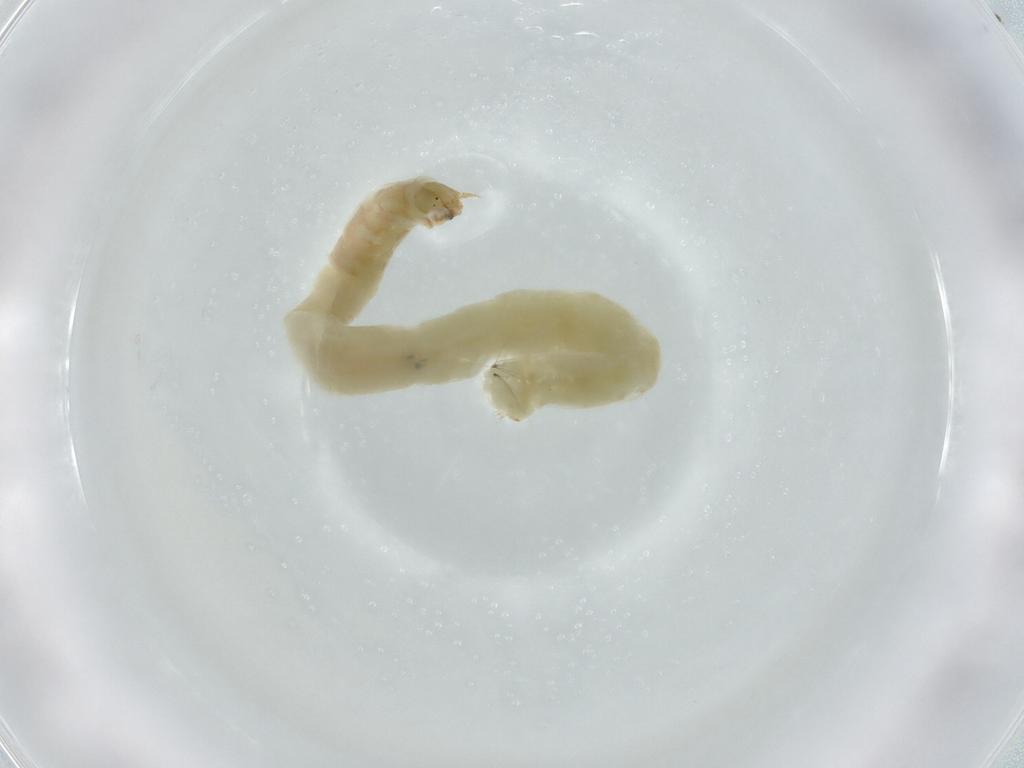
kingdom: Animalia
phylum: Arthropoda
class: Insecta
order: Diptera
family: Chironomidae
